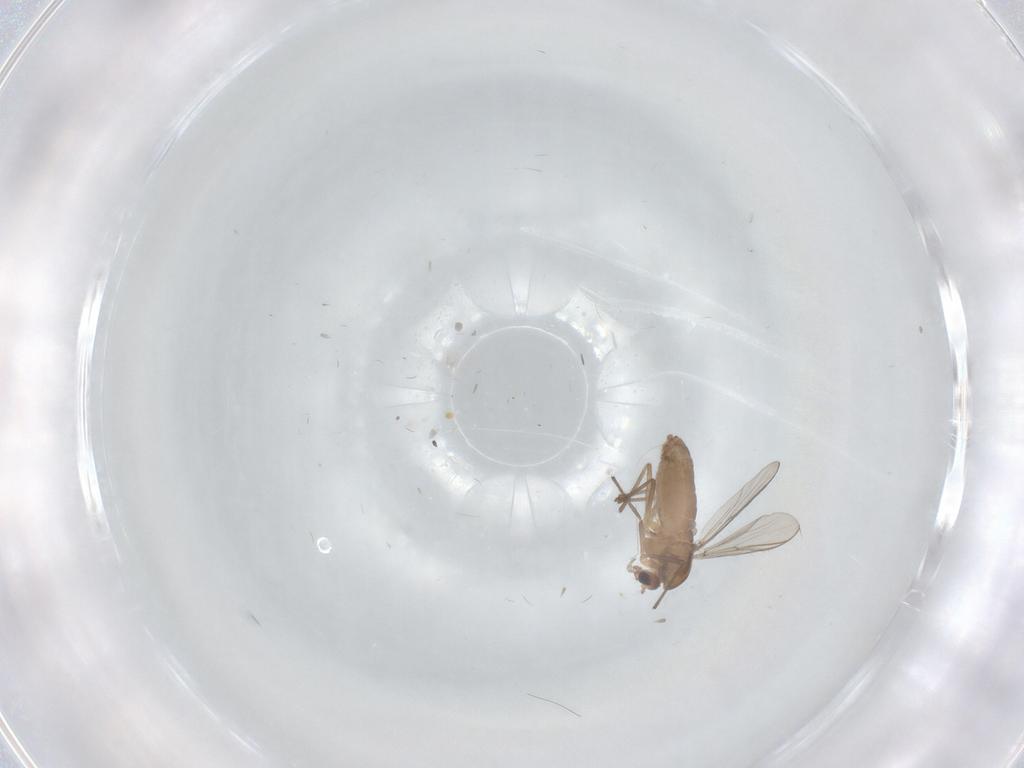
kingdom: Animalia
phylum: Arthropoda
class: Insecta
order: Diptera
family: Chironomidae
